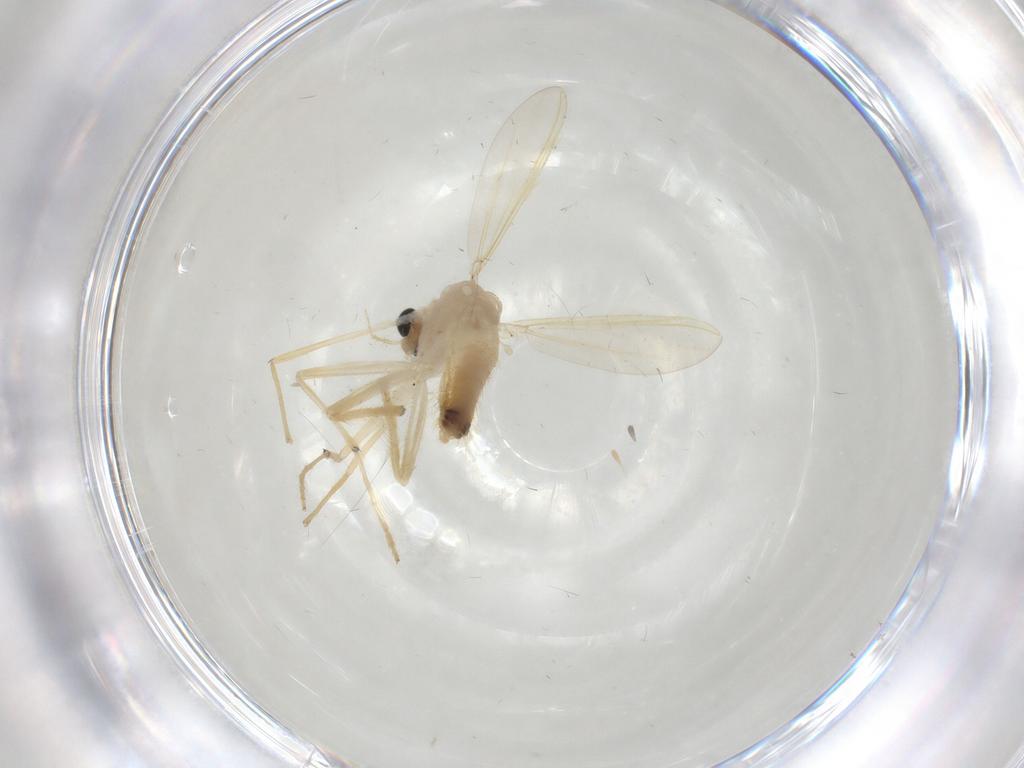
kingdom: Animalia
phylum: Arthropoda
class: Insecta
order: Diptera
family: Chironomidae
